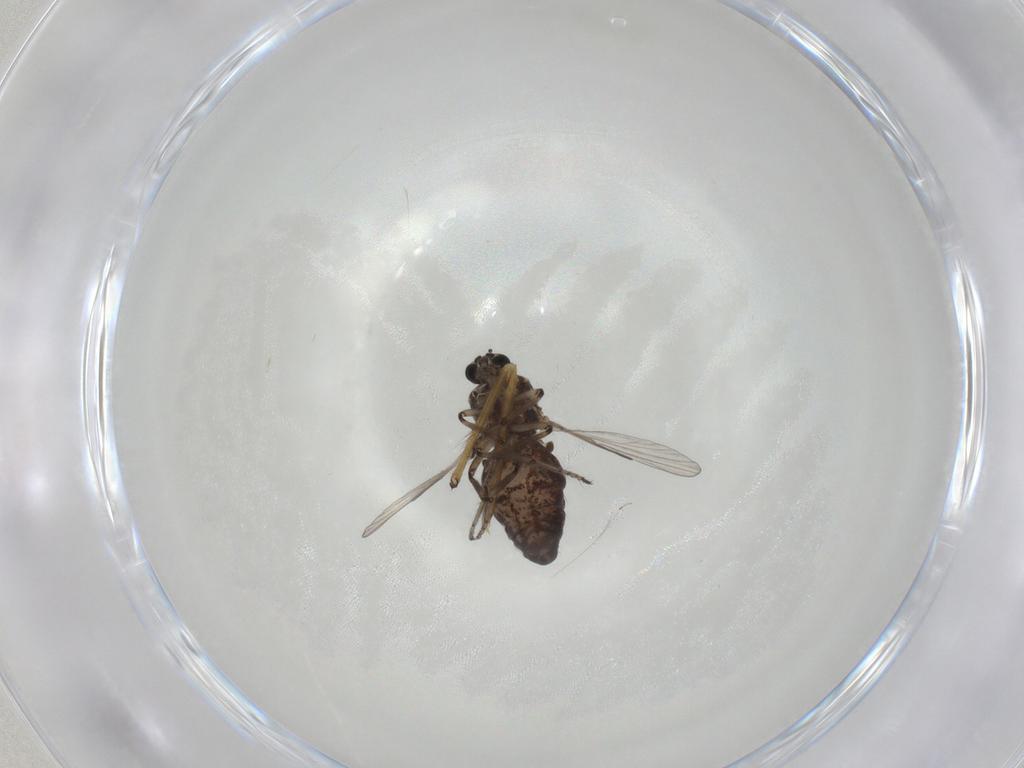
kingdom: Animalia
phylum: Arthropoda
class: Insecta
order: Diptera
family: Chironomidae
